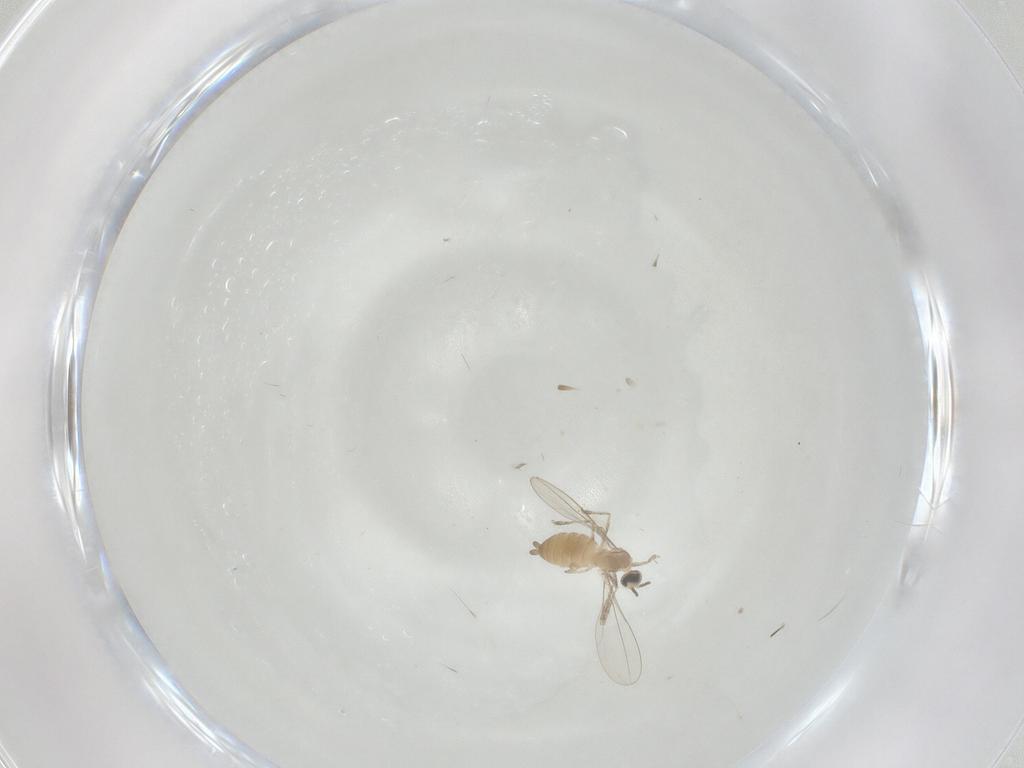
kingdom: Animalia
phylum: Arthropoda
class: Insecta
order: Diptera
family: Cecidomyiidae
